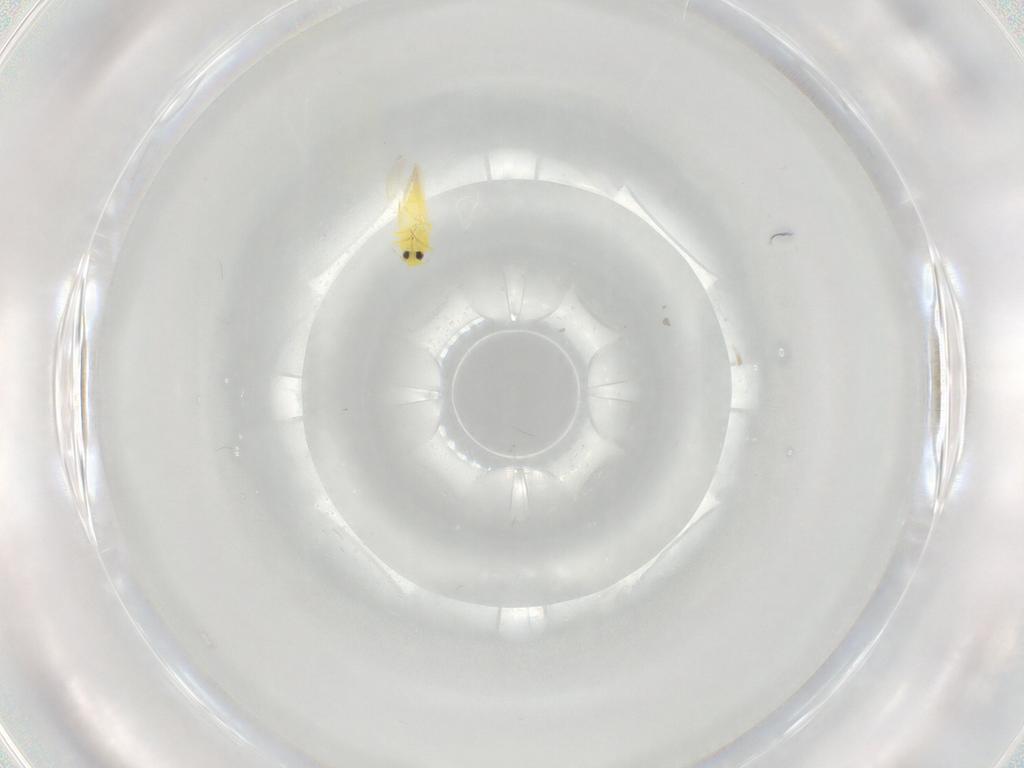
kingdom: Animalia
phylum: Arthropoda
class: Insecta
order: Hemiptera
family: Aleyrodidae
